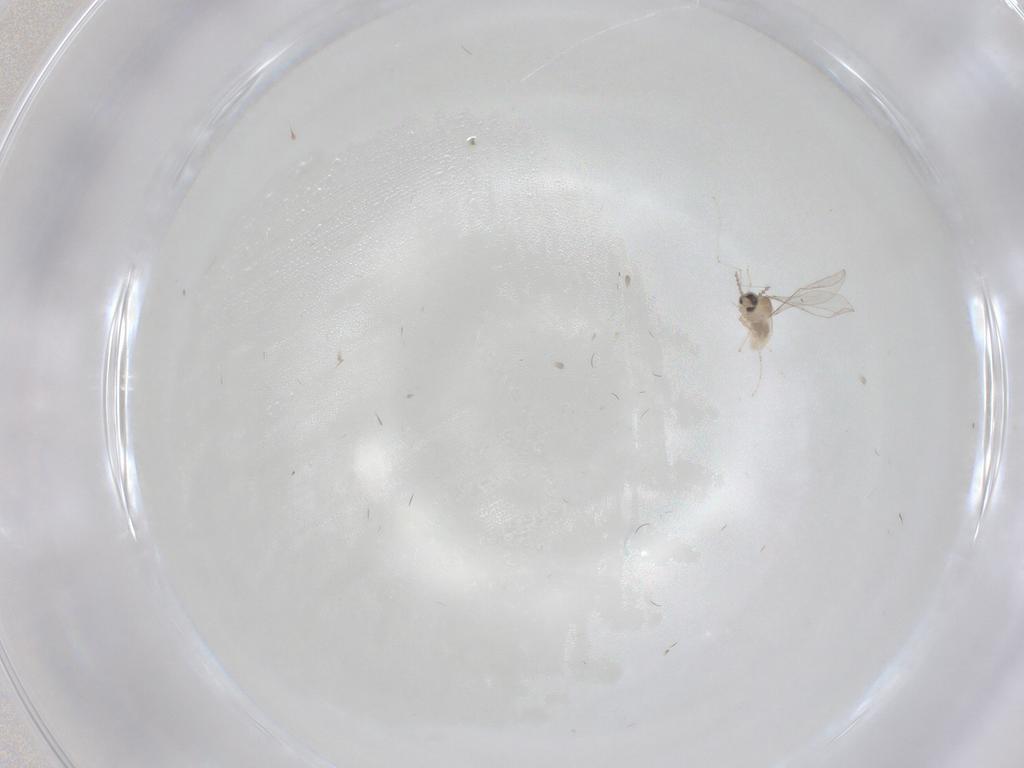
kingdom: Animalia
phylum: Arthropoda
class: Insecta
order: Diptera
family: Cecidomyiidae
